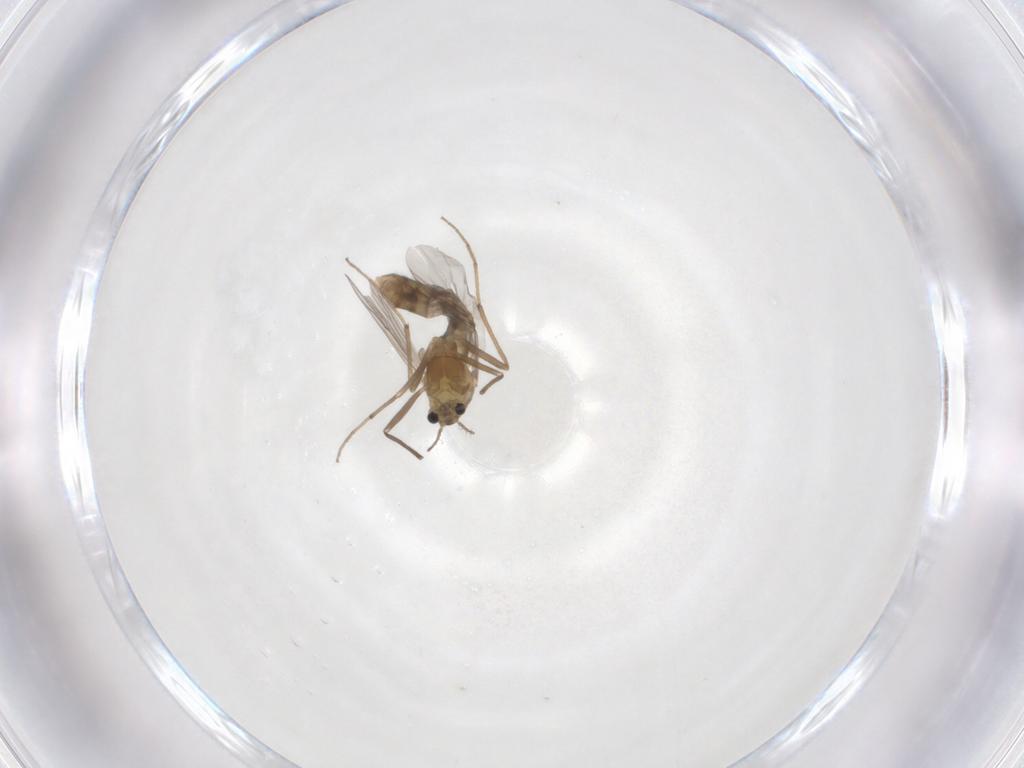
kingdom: Animalia
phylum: Arthropoda
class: Insecta
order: Diptera
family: Chironomidae
